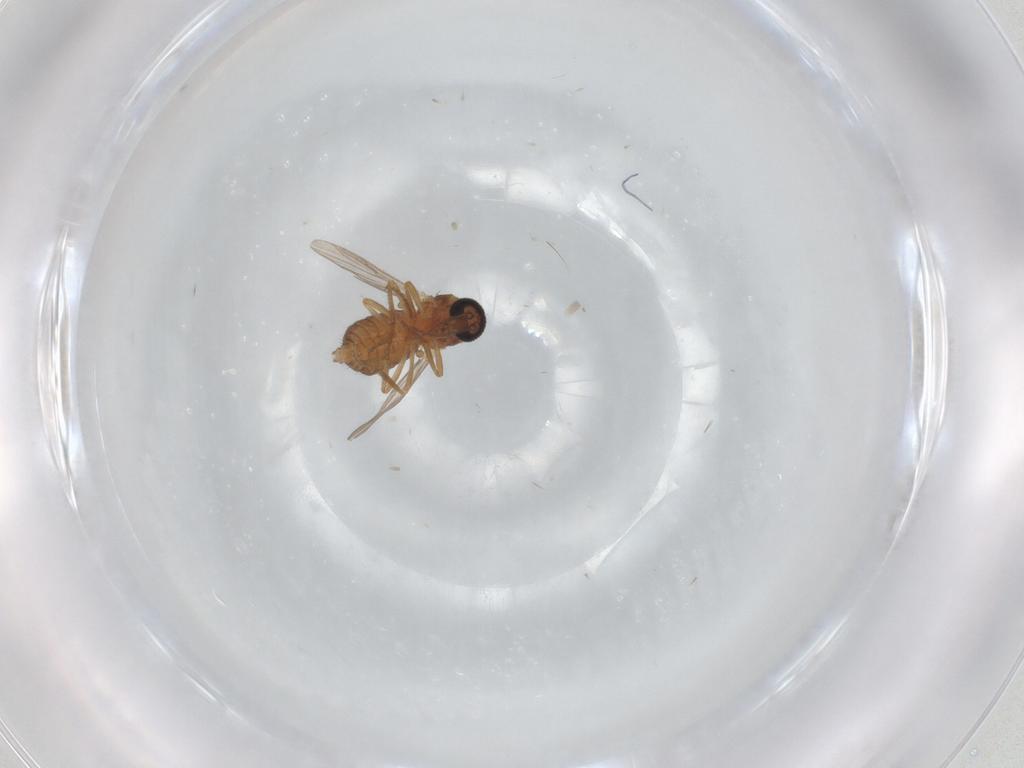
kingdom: Animalia
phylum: Arthropoda
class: Insecta
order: Diptera
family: Ceratopogonidae
